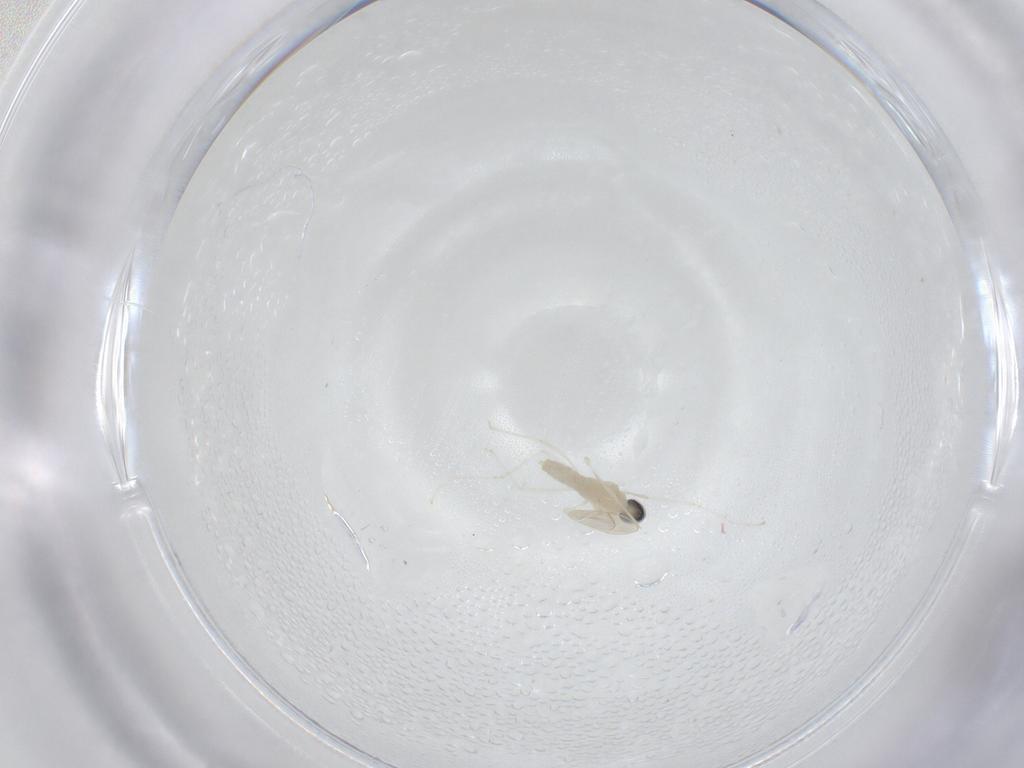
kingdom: Animalia
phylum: Arthropoda
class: Insecta
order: Diptera
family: Cecidomyiidae
